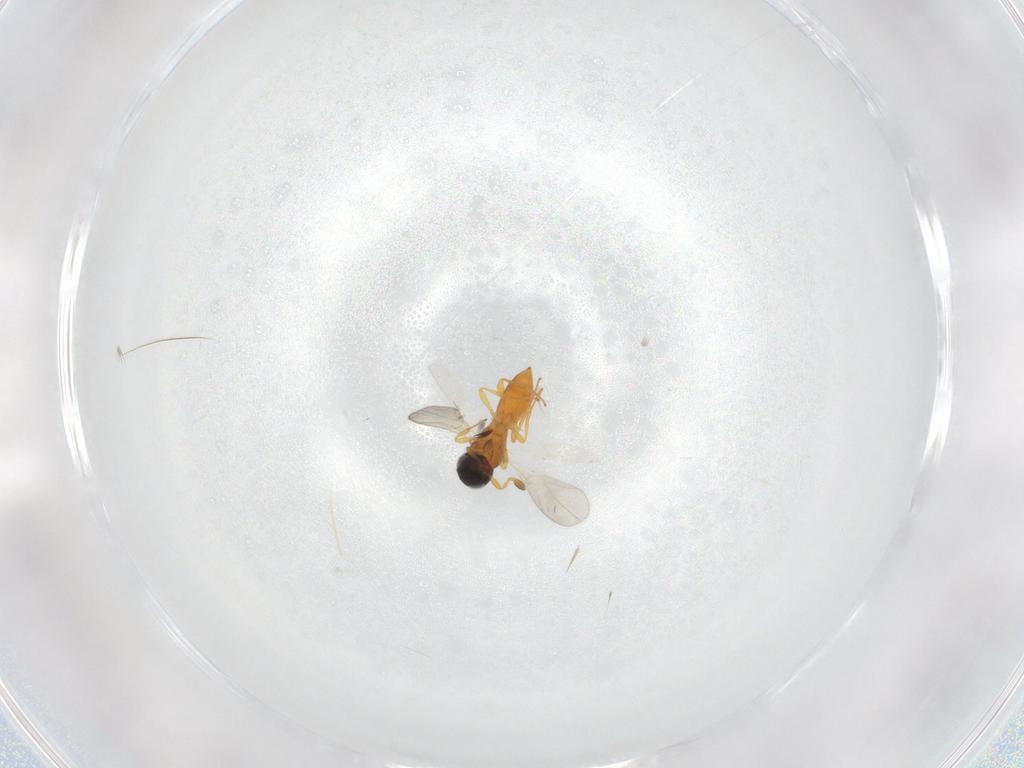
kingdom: Animalia
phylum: Arthropoda
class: Insecta
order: Hymenoptera
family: Platygastridae
